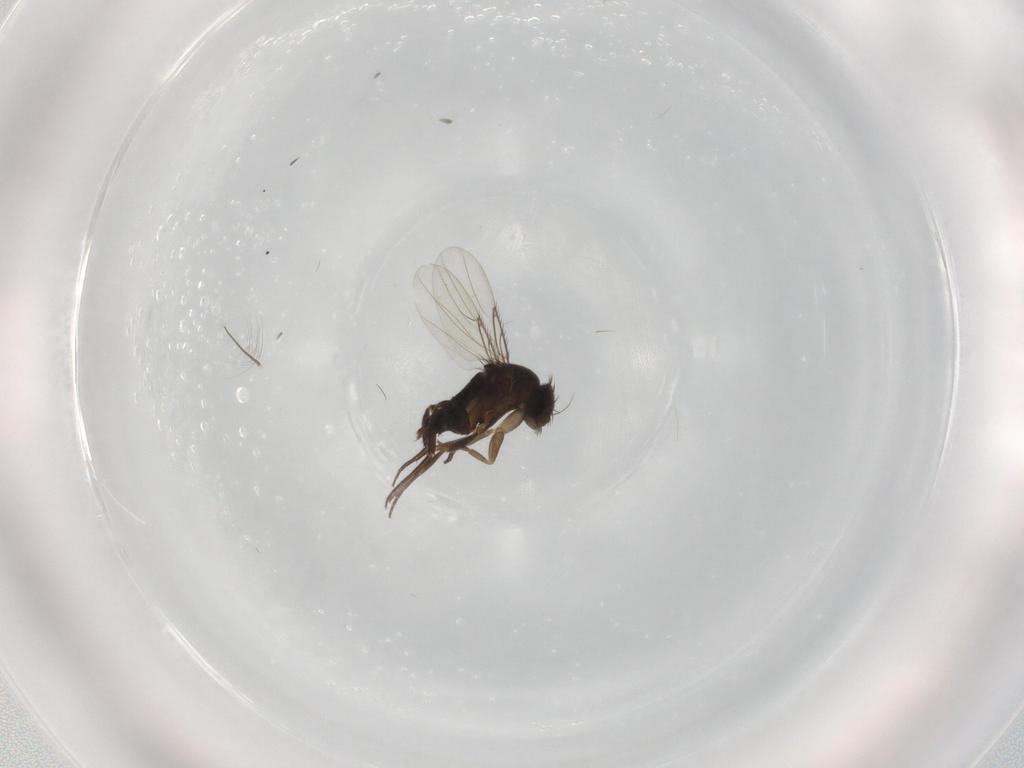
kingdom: Animalia
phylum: Arthropoda
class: Insecta
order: Diptera
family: Phoridae
